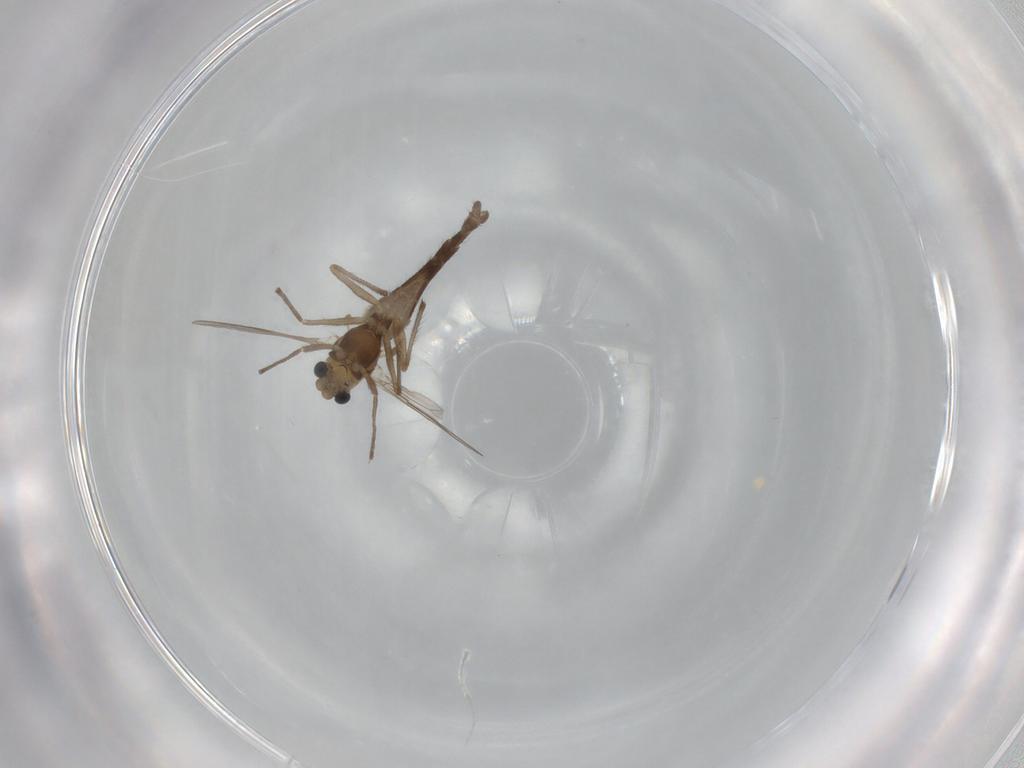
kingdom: Animalia
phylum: Arthropoda
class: Insecta
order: Diptera
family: Chironomidae
